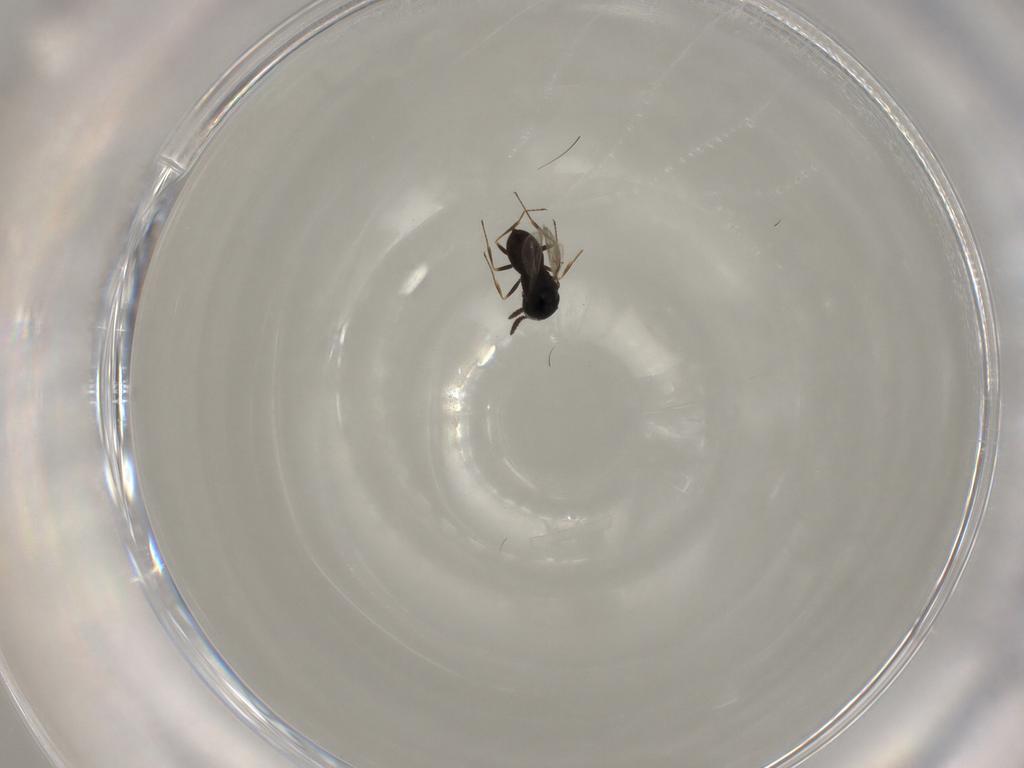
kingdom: Animalia
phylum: Arthropoda
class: Insecta
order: Hymenoptera
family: Scelionidae
